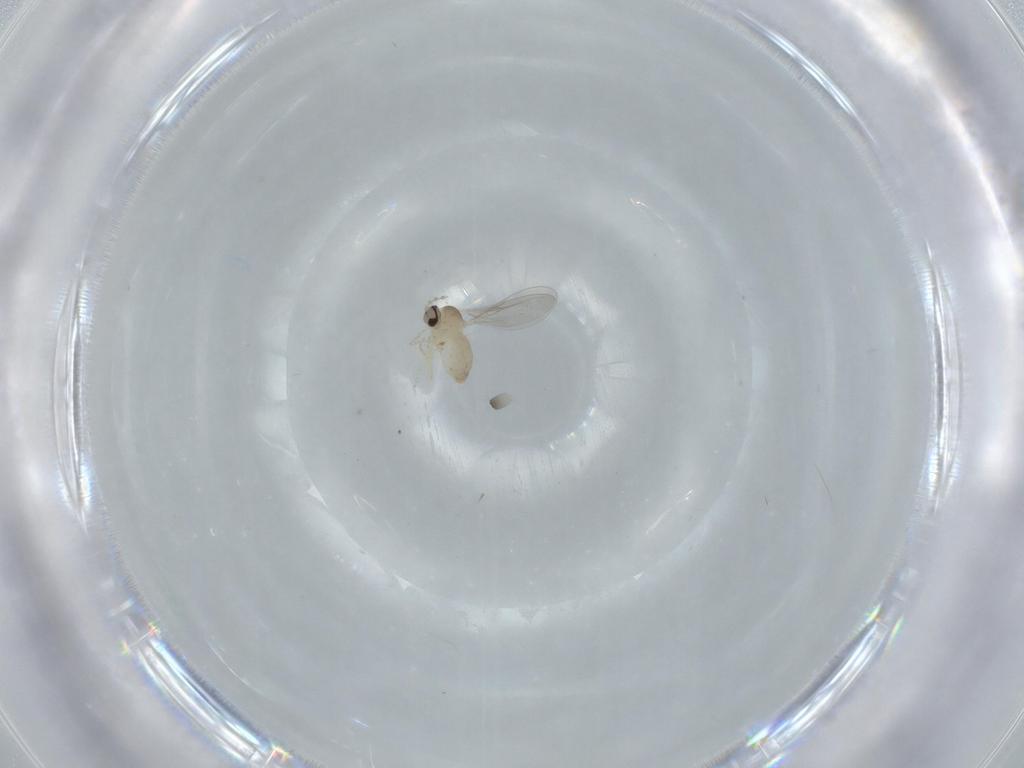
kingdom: Animalia
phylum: Arthropoda
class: Insecta
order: Diptera
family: Cecidomyiidae
